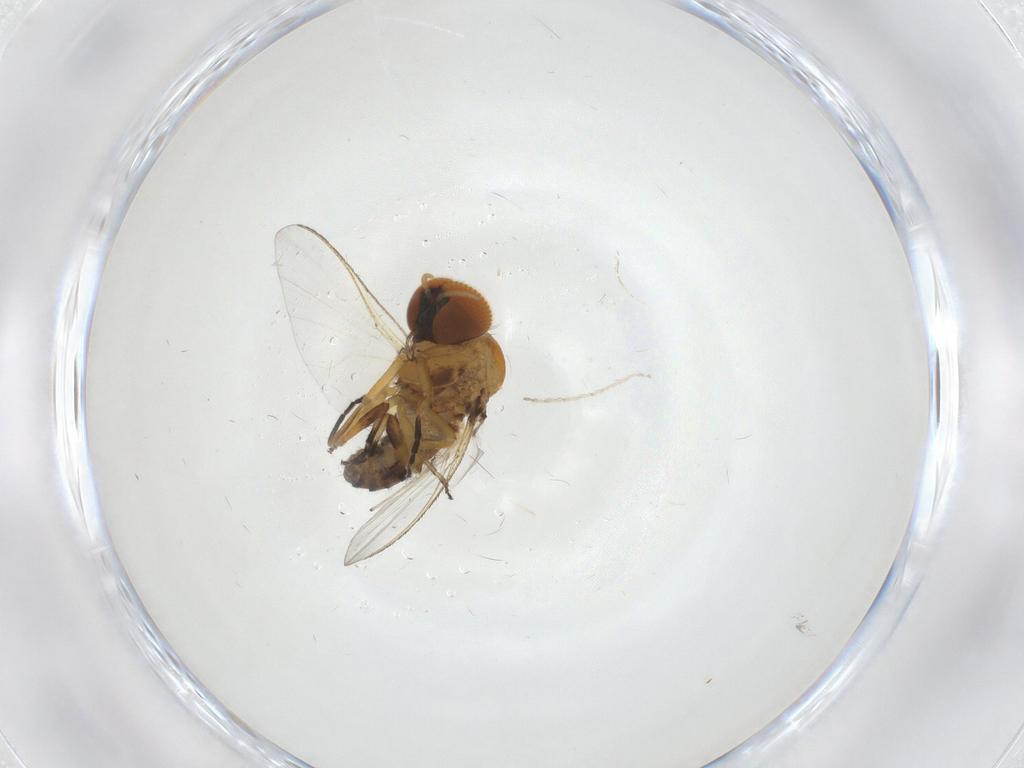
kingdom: Animalia
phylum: Arthropoda
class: Insecta
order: Diptera
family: Simuliidae
